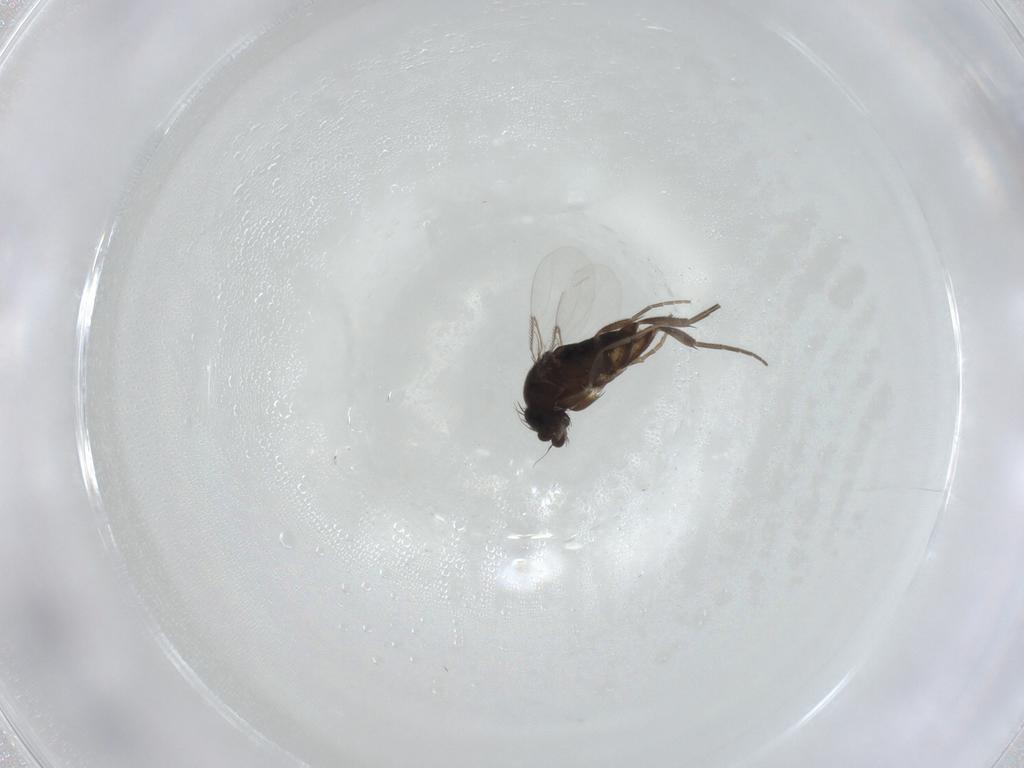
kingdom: Animalia
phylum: Arthropoda
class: Insecta
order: Diptera
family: Phoridae
